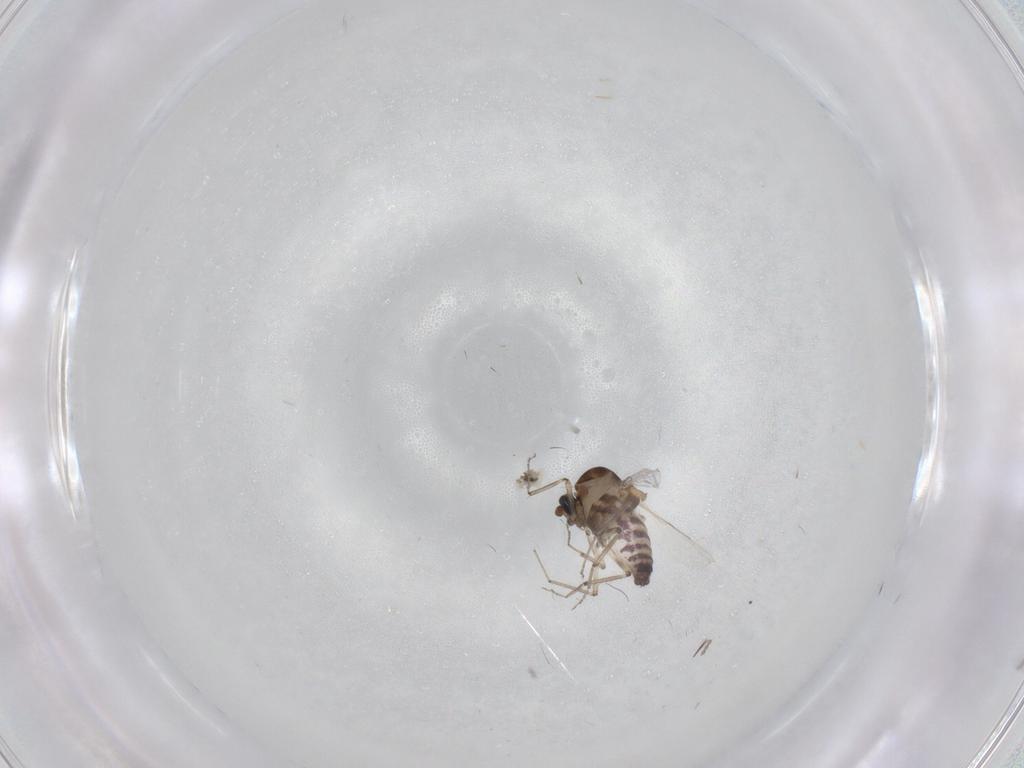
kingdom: Animalia
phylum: Arthropoda
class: Insecta
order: Diptera
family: Ceratopogonidae
